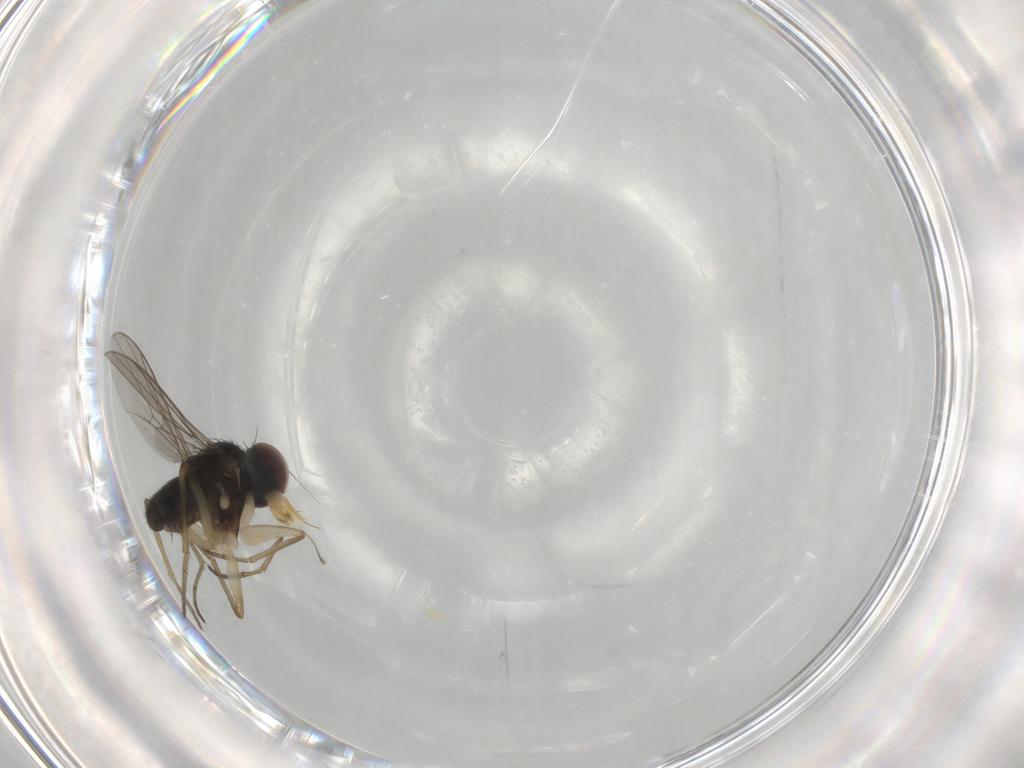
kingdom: Animalia
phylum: Arthropoda
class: Insecta
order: Diptera
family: Dolichopodidae
